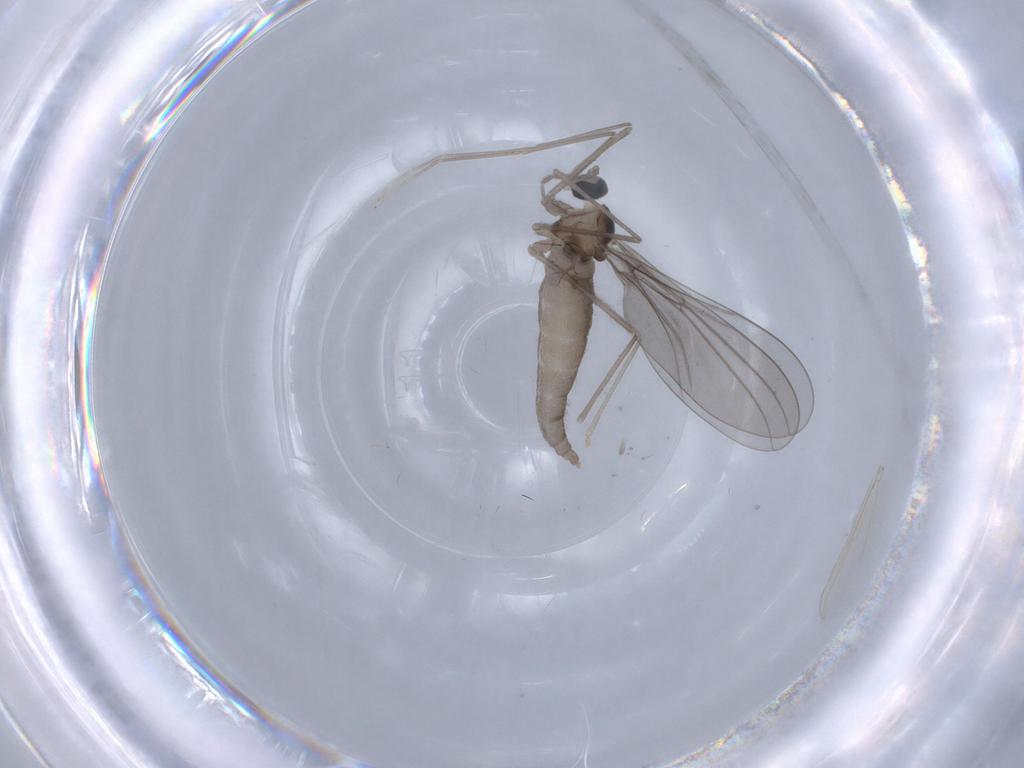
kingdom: Animalia
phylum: Arthropoda
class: Insecta
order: Diptera
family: Cecidomyiidae
